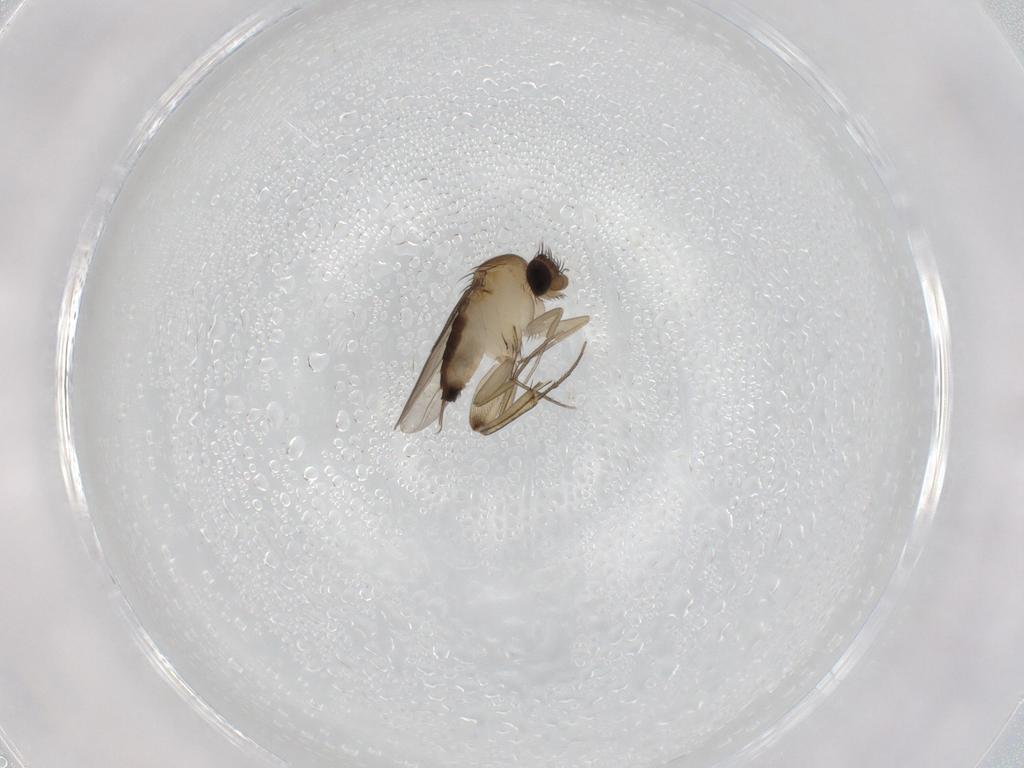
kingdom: Animalia
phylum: Arthropoda
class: Insecta
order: Diptera
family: Phoridae
